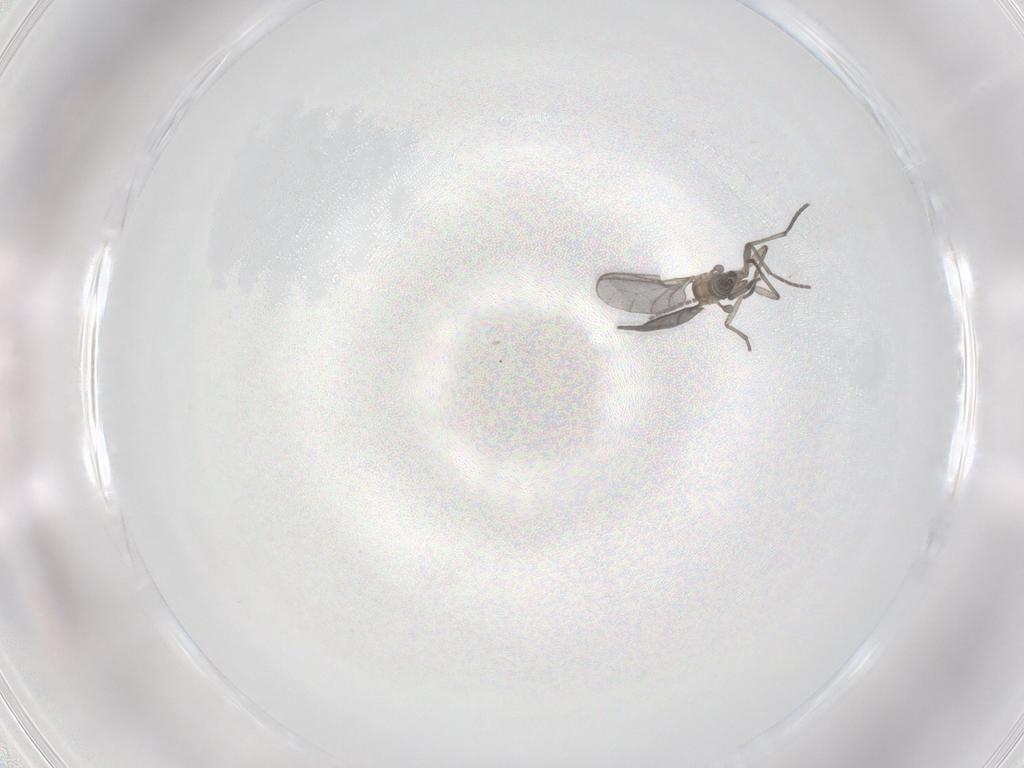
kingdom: Animalia
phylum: Arthropoda
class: Insecta
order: Diptera
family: Sciaridae
